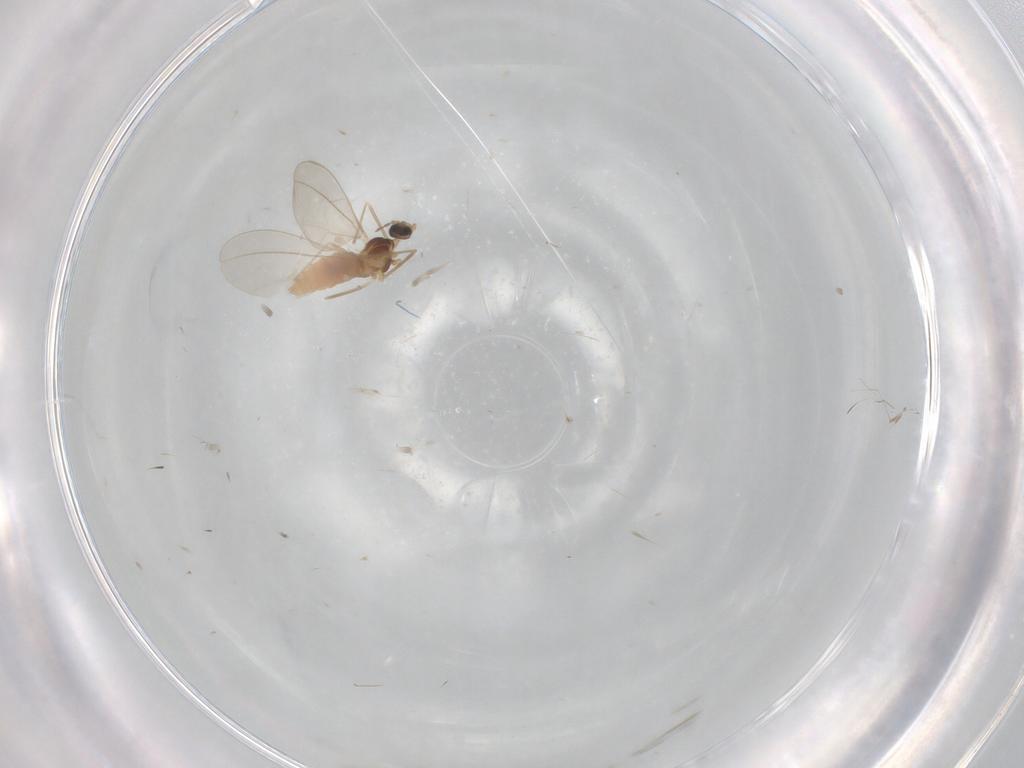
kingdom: Animalia
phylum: Arthropoda
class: Insecta
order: Diptera
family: Cecidomyiidae
